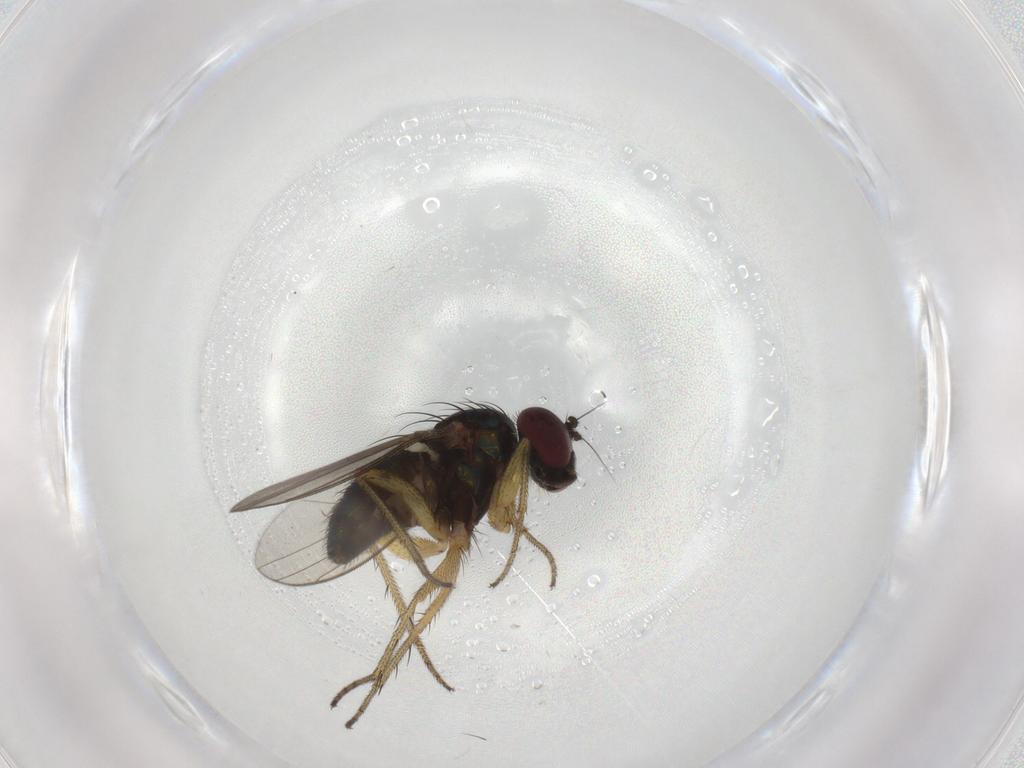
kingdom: Animalia
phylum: Arthropoda
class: Insecta
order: Diptera
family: Dolichopodidae
